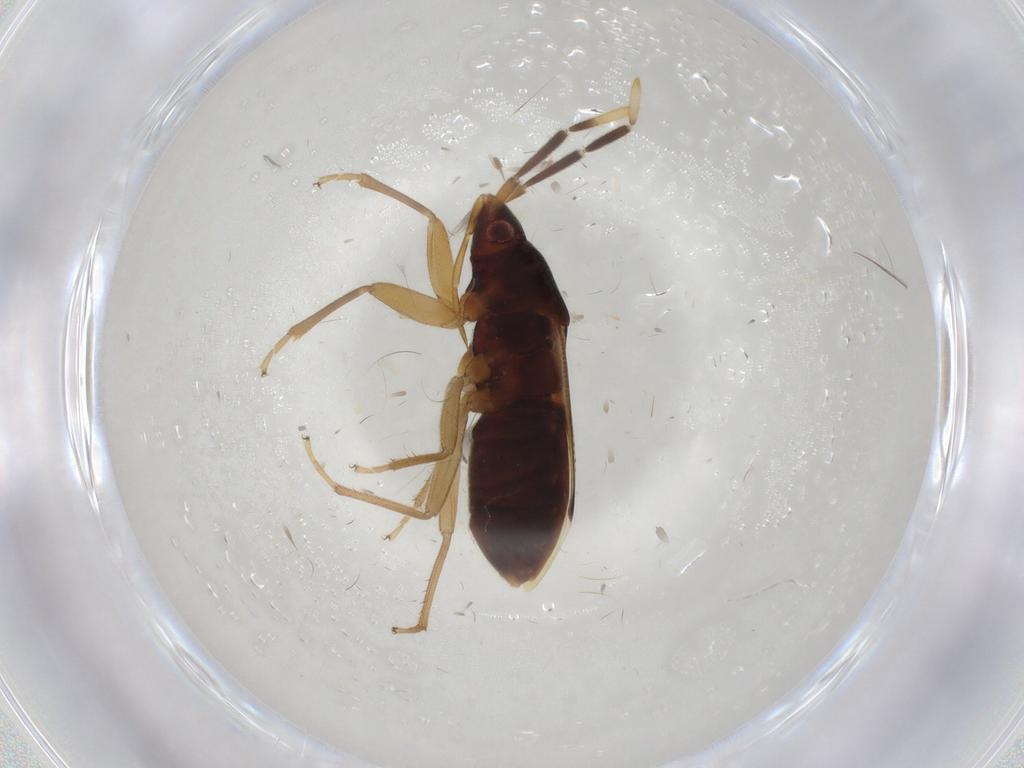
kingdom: Animalia
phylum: Arthropoda
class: Insecta
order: Hemiptera
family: Rhyparochromidae
